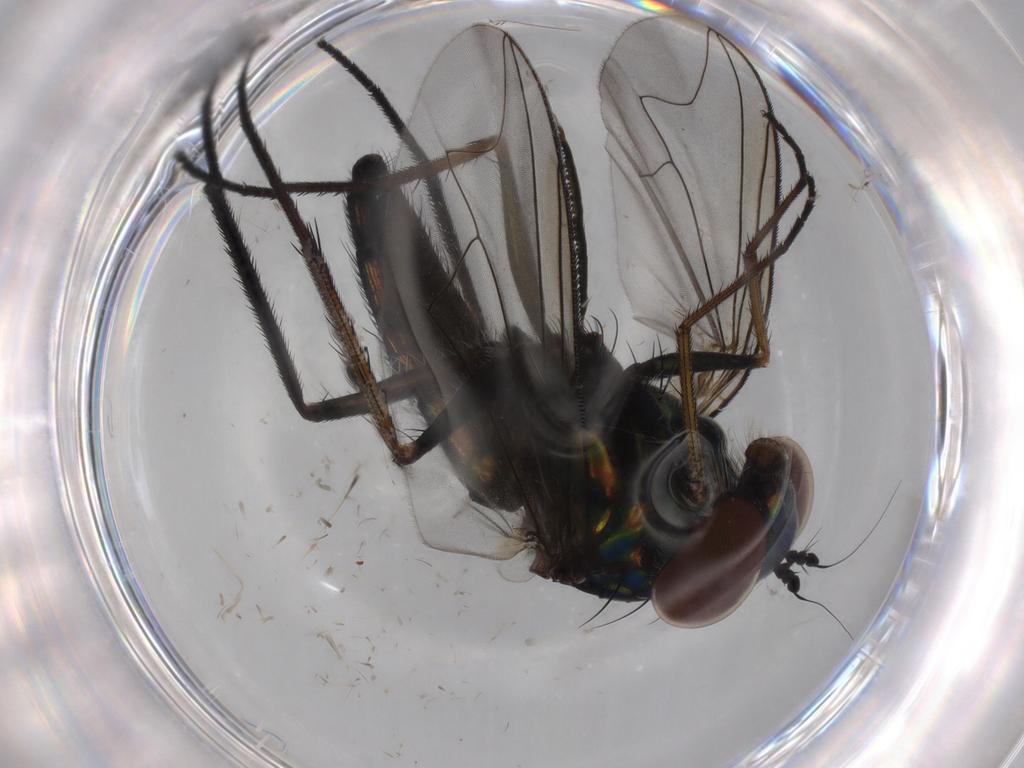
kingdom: Animalia
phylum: Arthropoda
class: Insecta
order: Diptera
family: Dolichopodidae
